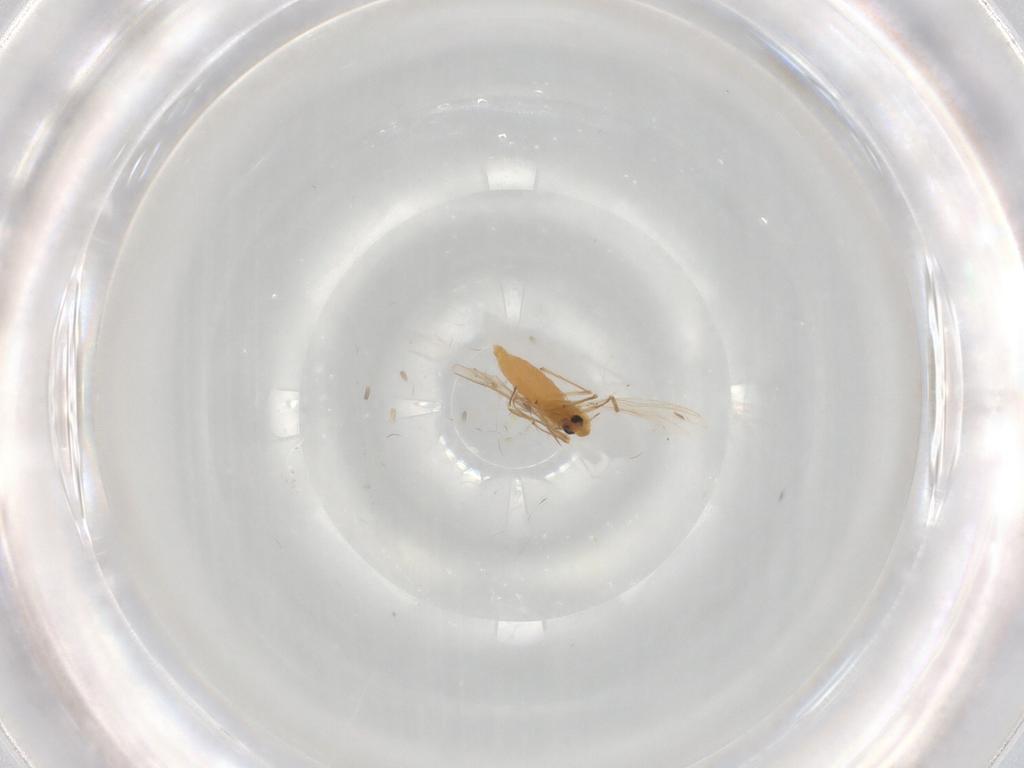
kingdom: Animalia
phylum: Arthropoda
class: Insecta
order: Diptera
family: Chironomidae
